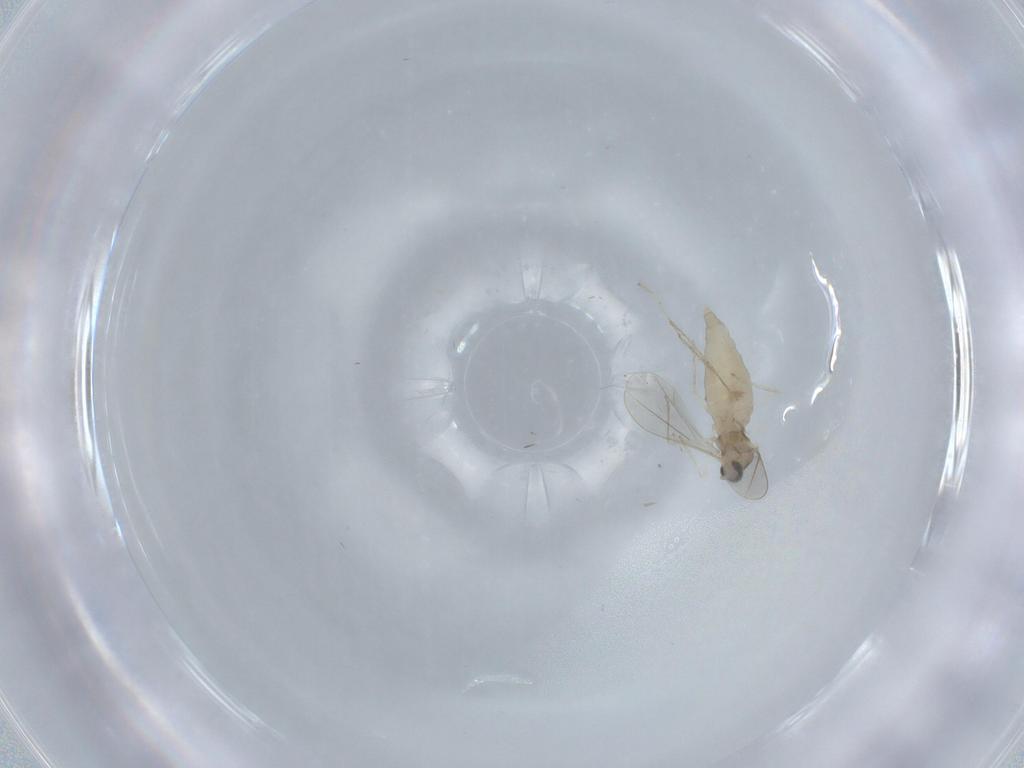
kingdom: Animalia
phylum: Arthropoda
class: Insecta
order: Diptera
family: Cecidomyiidae
